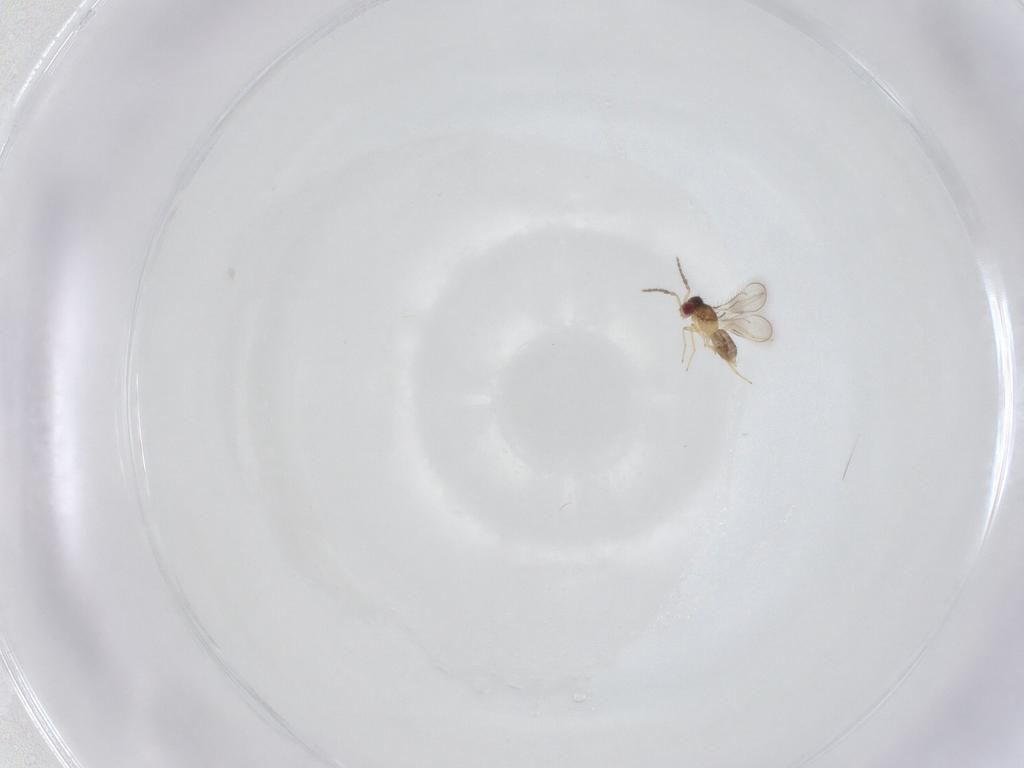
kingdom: Animalia
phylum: Arthropoda
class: Insecta
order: Hymenoptera
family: Eulophidae
